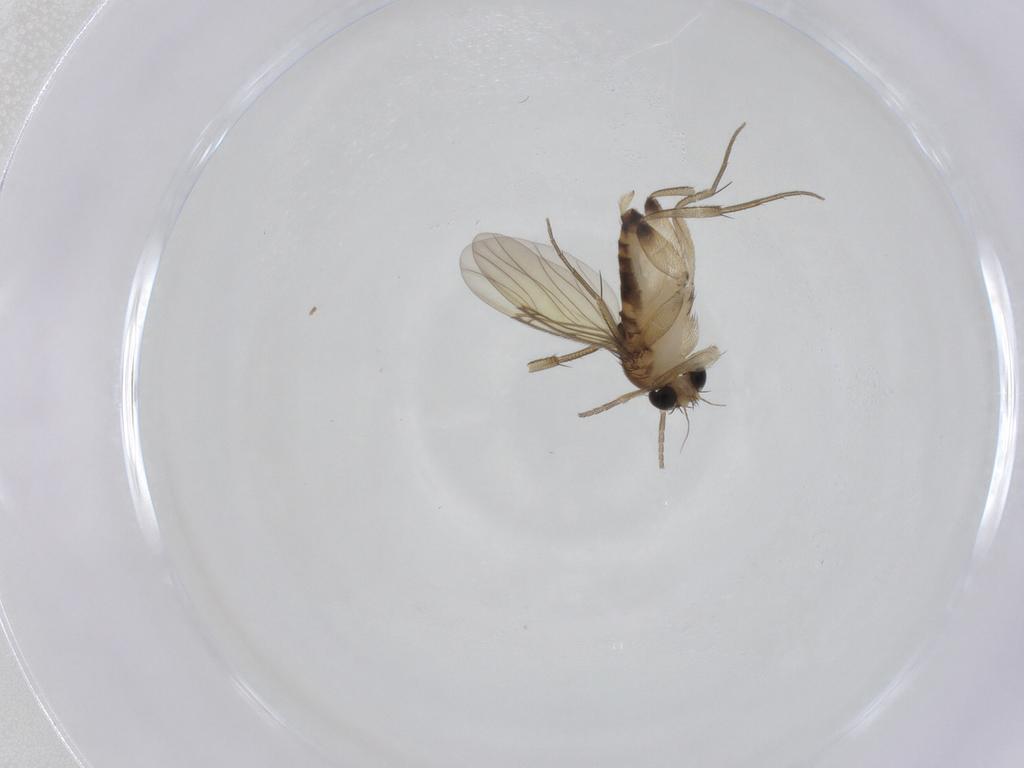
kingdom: Animalia
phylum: Arthropoda
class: Insecta
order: Diptera
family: Phoridae
